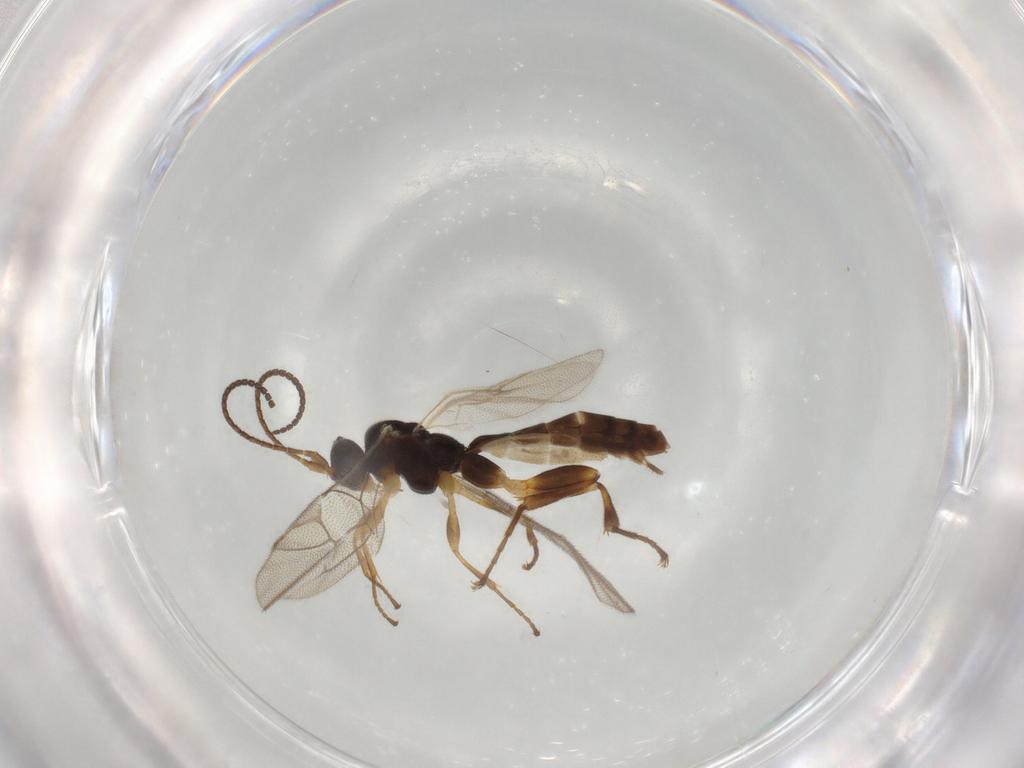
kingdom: Animalia
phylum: Arthropoda
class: Insecta
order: Hymenoptera
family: Ichneumonidae
